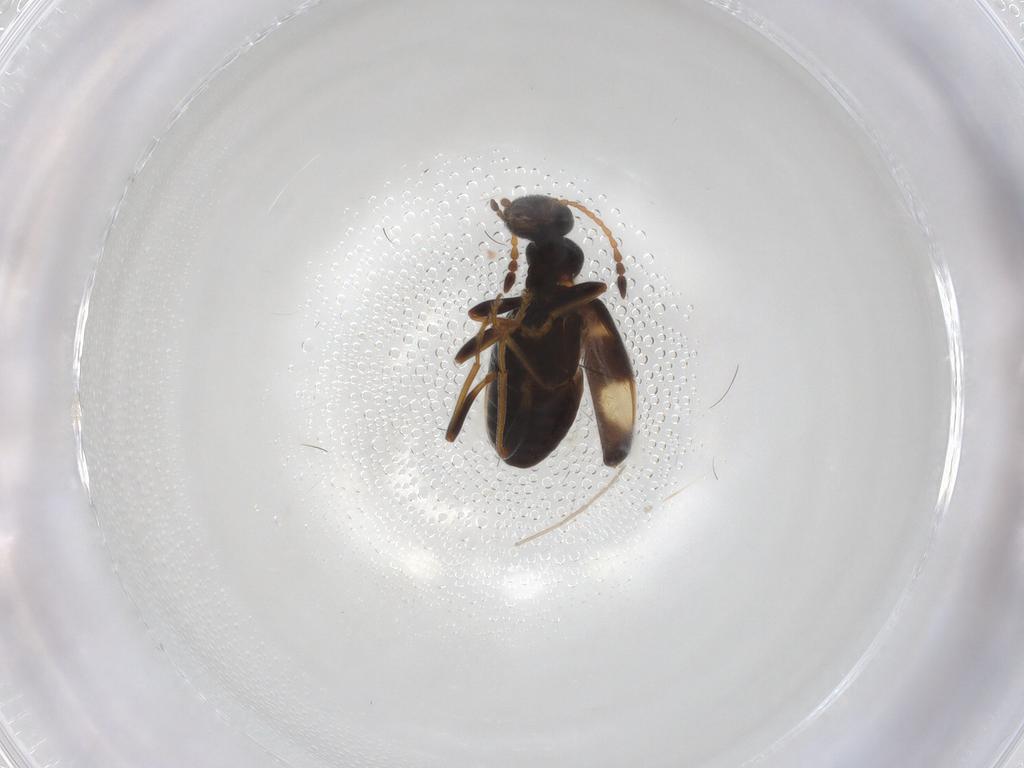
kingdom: Animalia
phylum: Arthropoda
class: Insecta
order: Coleoptera
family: Anthicidae
